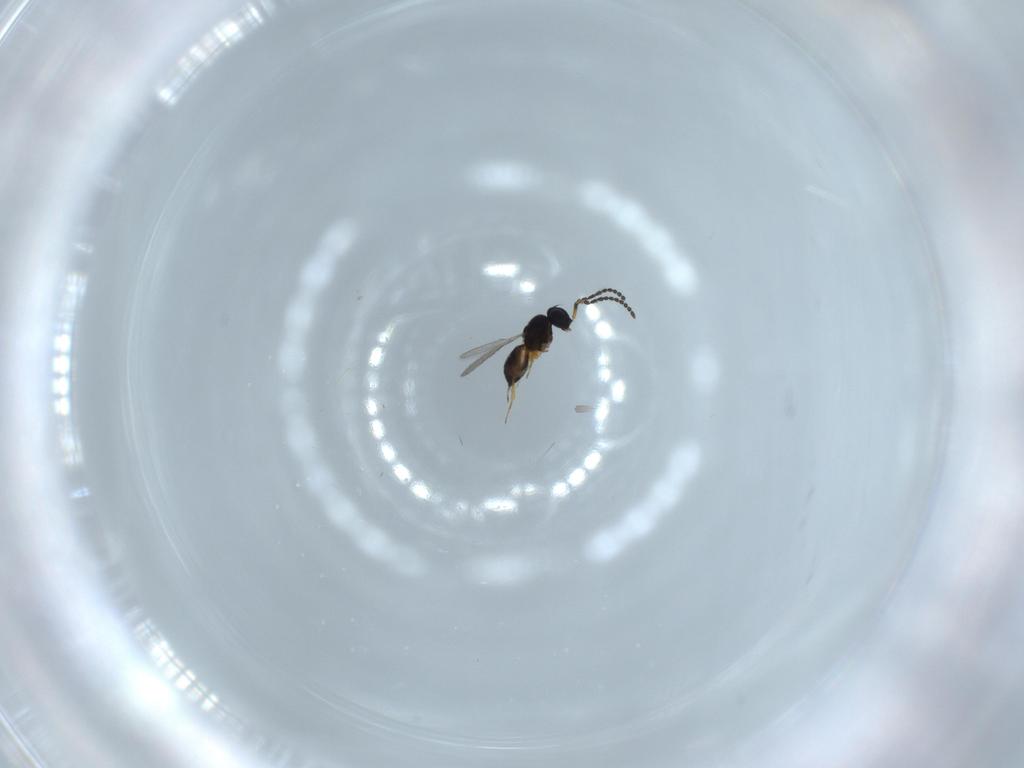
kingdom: Animalia
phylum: Arthropoda
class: Insecta
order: Hymenoptera
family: Scelionidae
